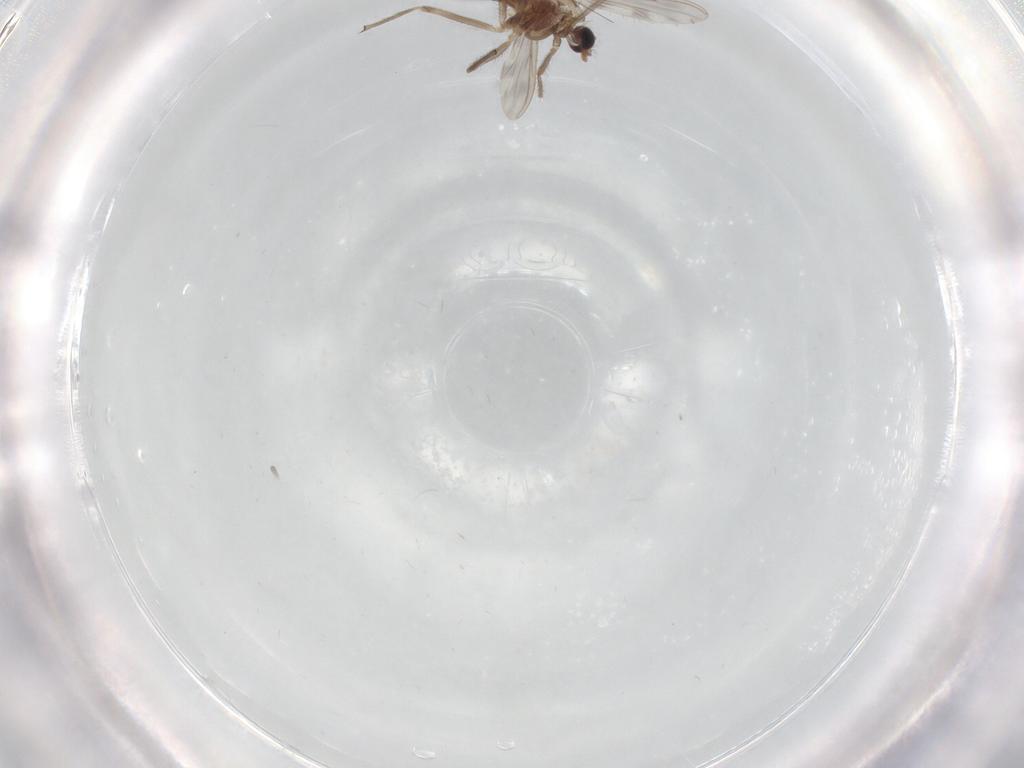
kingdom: Animalia
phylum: Arthropoda
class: Insecta
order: Diptera
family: Chironomidae
